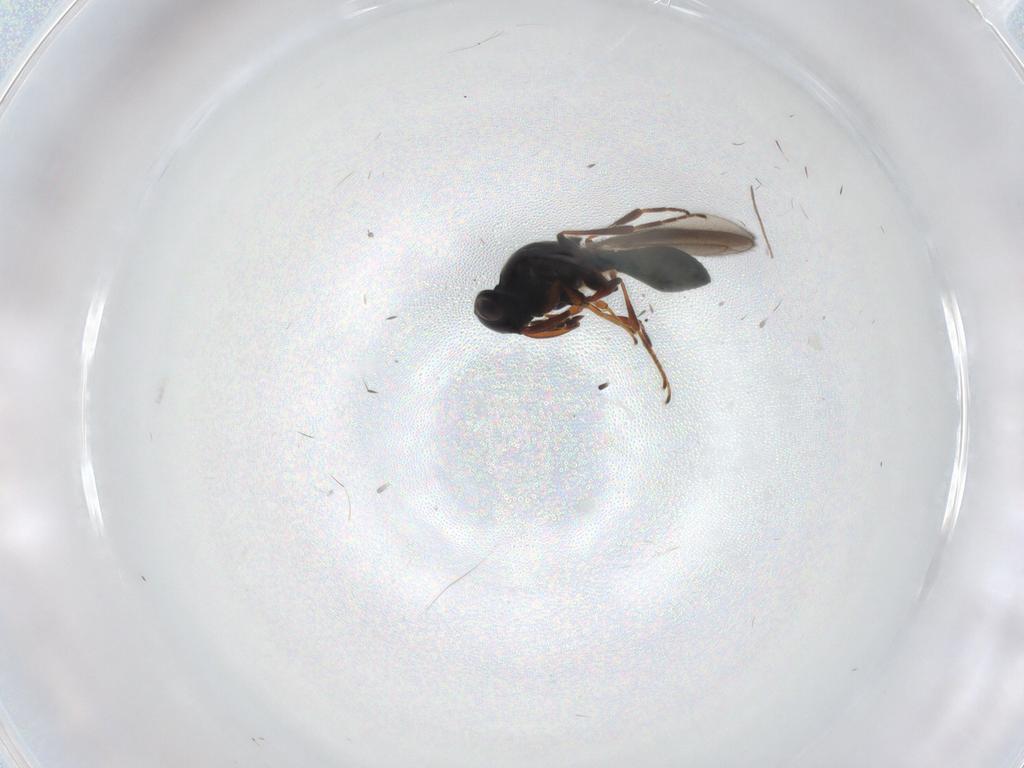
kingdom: Animalia
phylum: Arthropoda
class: Insecta
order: Hymenoptera
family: Platygastridae
